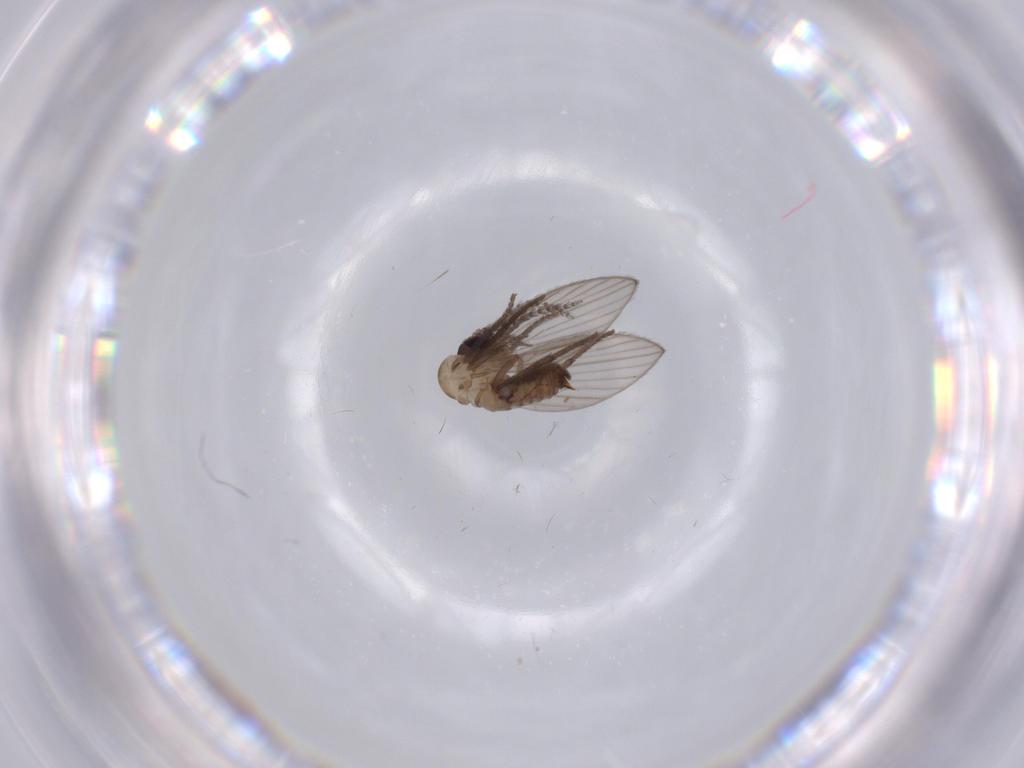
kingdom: Animalia
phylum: Arthropoda
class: Insecta
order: Diptera
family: Psychodidae
